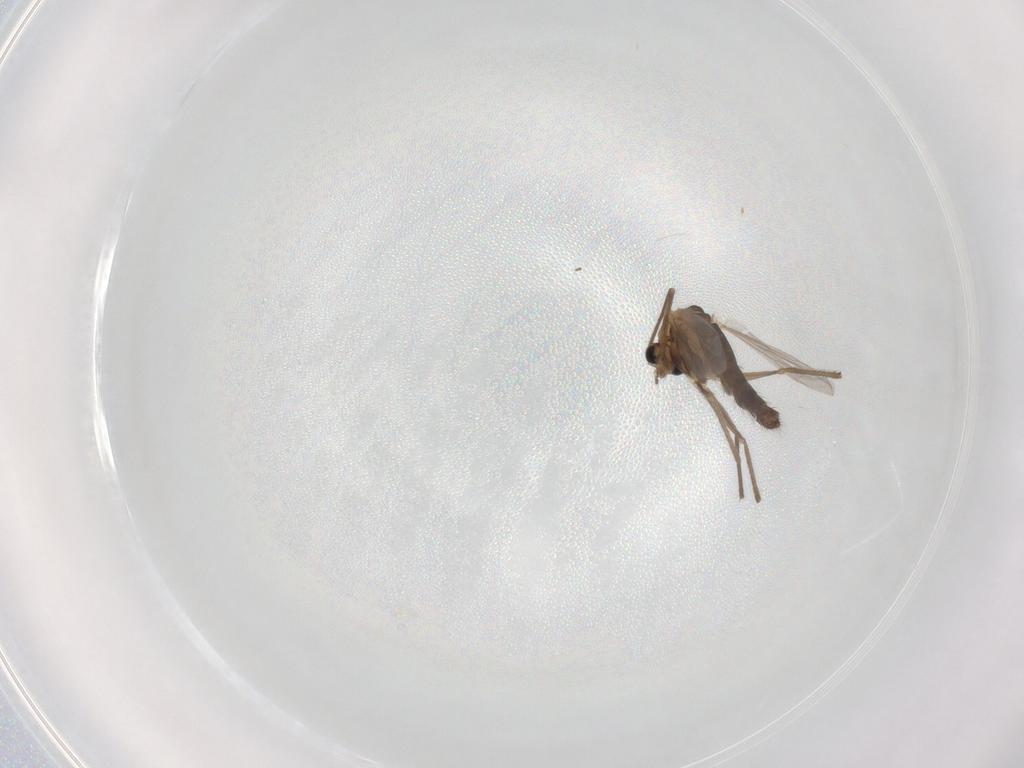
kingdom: Animalia
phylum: Arthropoda
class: Insecta
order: Diptera
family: Chironomidae
